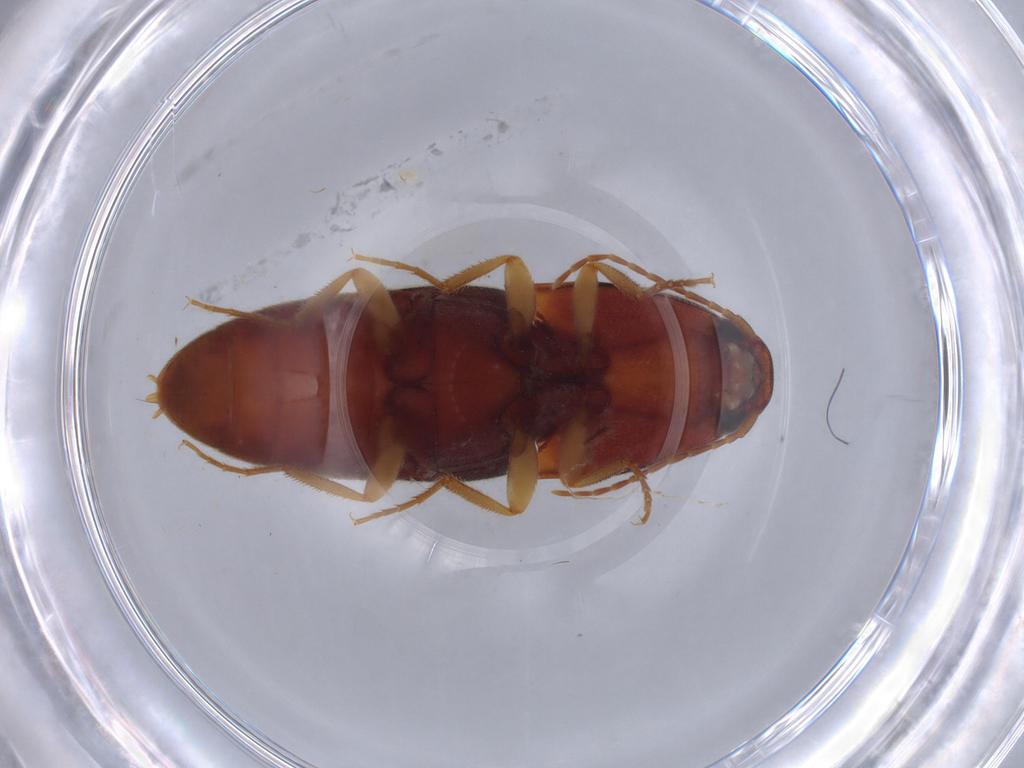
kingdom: Animalia
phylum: Arthropoda
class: Insecta
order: Coleoptera
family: Elateridae
